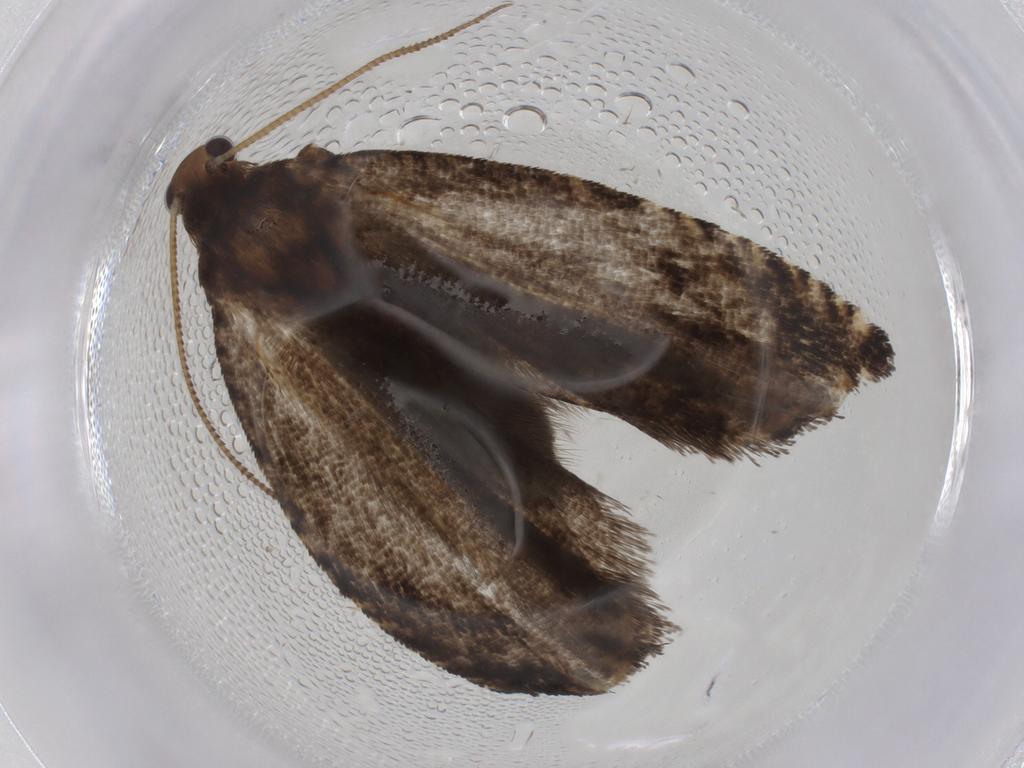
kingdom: Animalia
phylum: Arthropoda
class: Insecta
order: Lepidoptera
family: Tortricidae
